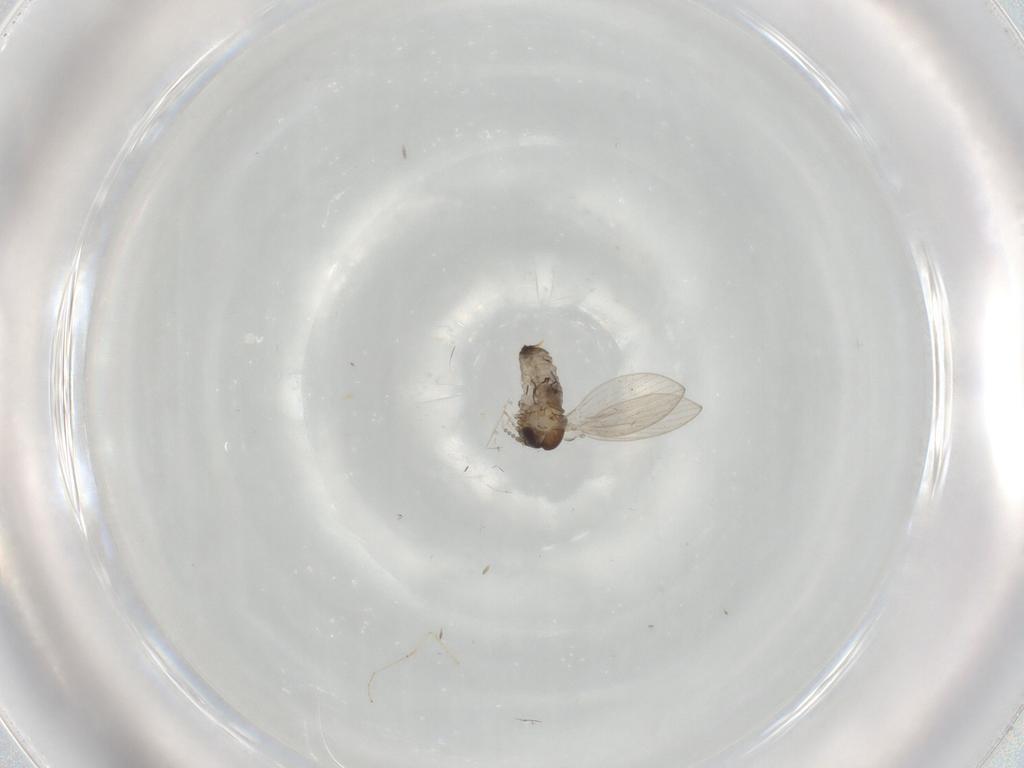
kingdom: Animalia
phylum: Arthropoda
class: Insecta
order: Diptera
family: Psychodidae
